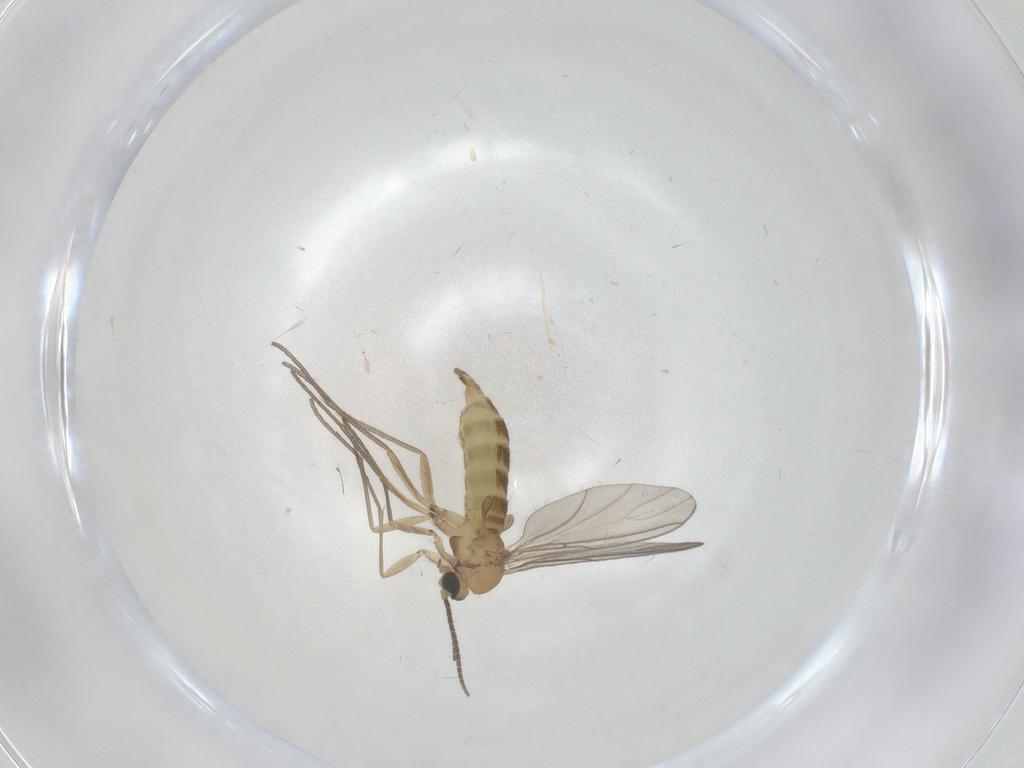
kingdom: Animalia
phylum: Arthropoda
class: Insecta
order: Diptera
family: Sciaridae
